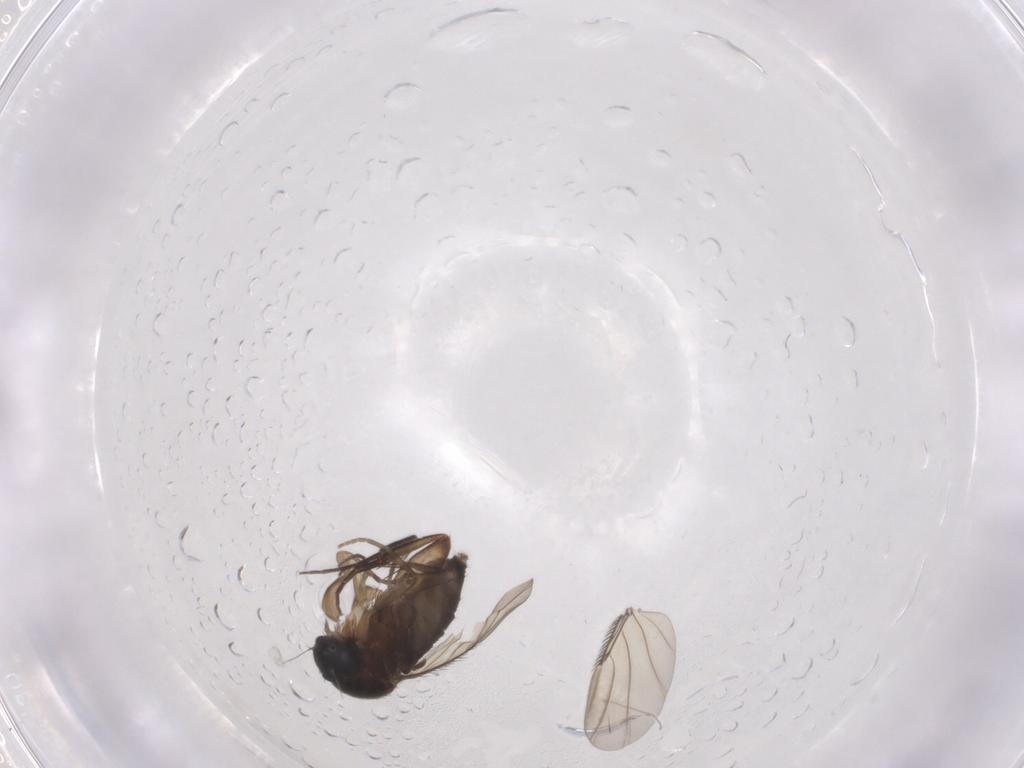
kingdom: Animalia
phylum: Arthropoda
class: Insecta
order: Diptera
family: Phoridae
